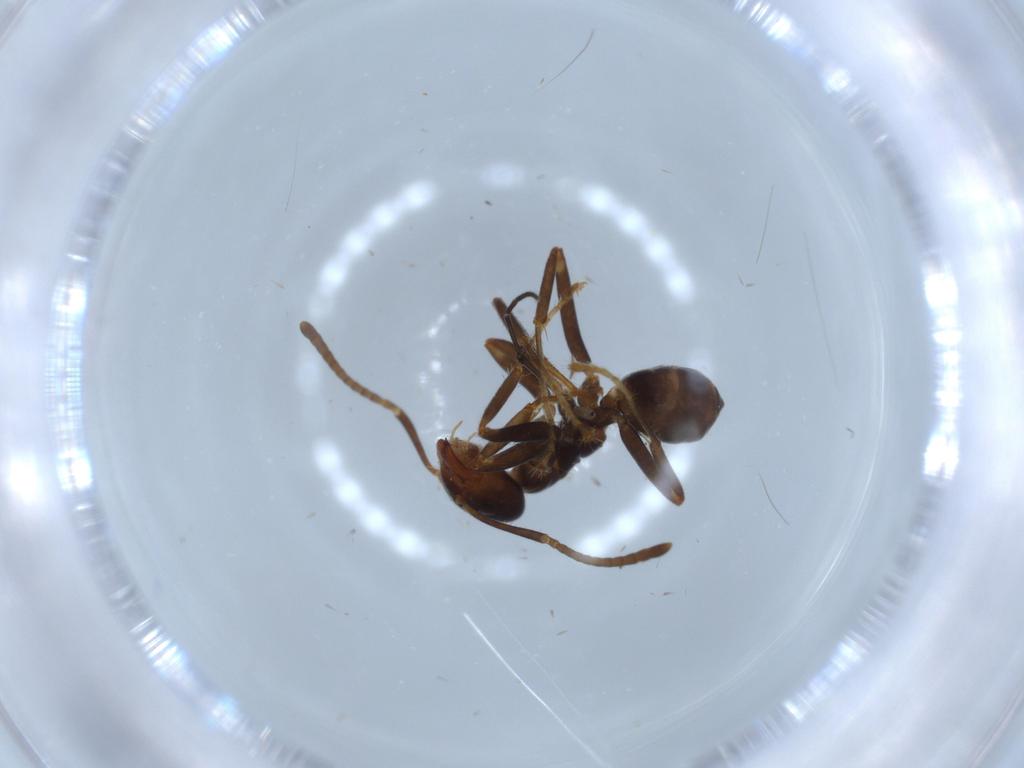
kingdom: Animalia
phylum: Arthropoda
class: Insecta
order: Hymenoptera
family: Formicidae
